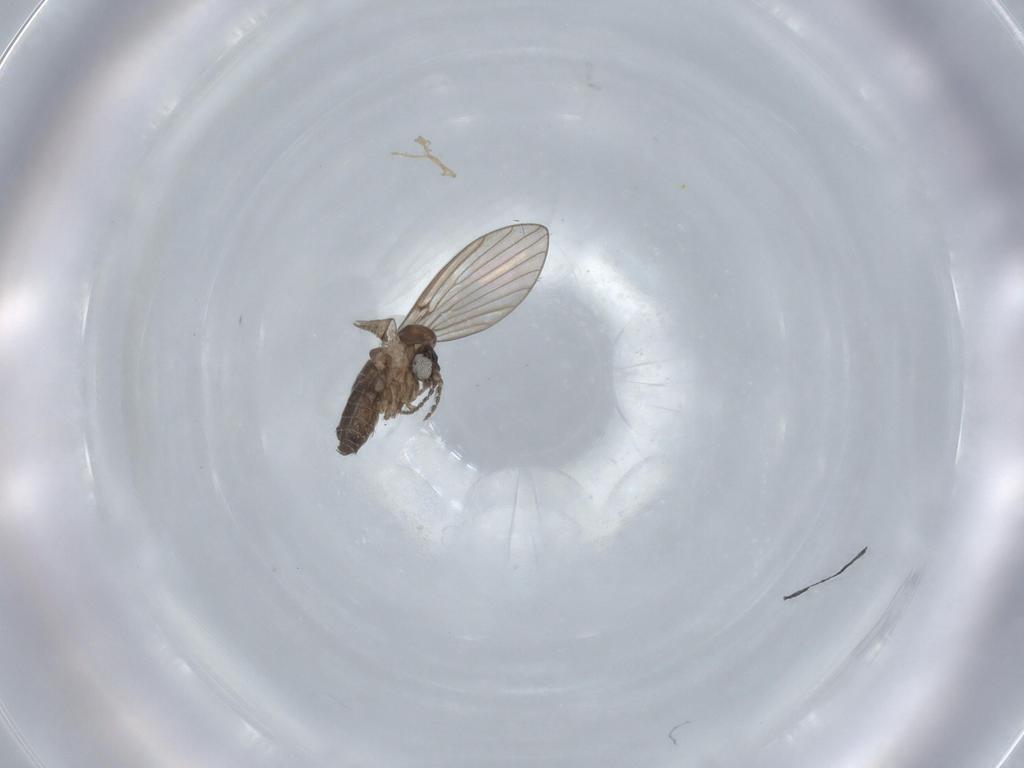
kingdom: Animalia
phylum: Arthropoda
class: Insecta
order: Diptera
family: Psychodidae
